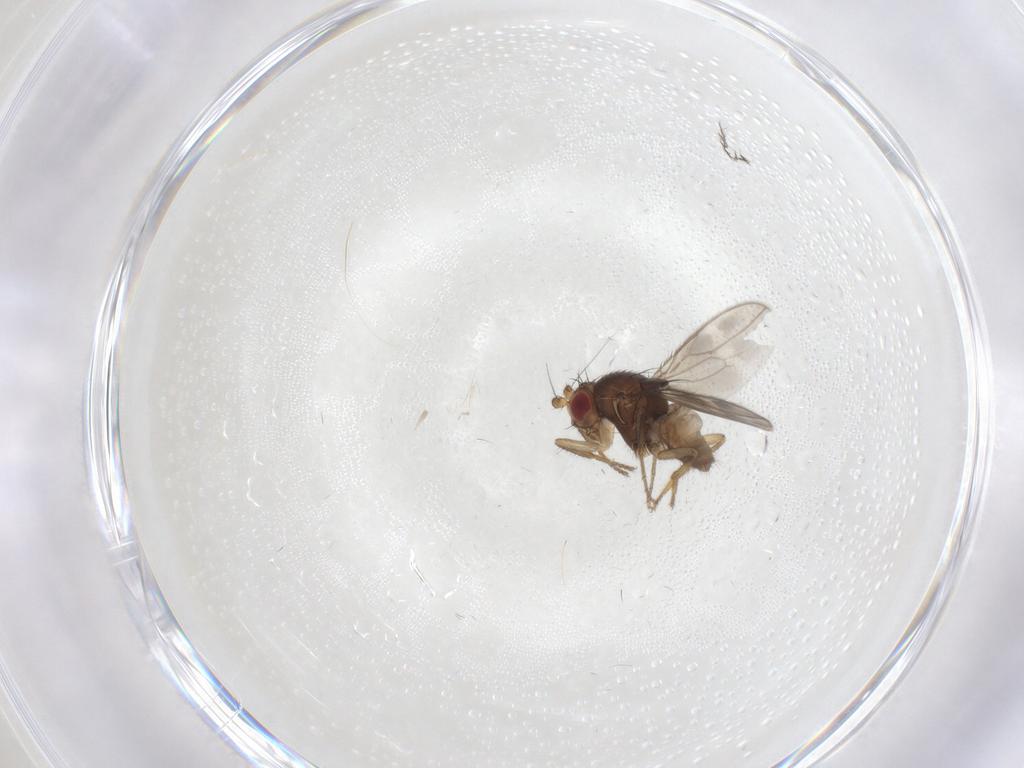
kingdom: Animalia
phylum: Arthropoda
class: Insecta
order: Diptera
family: Sphaeroceridae
